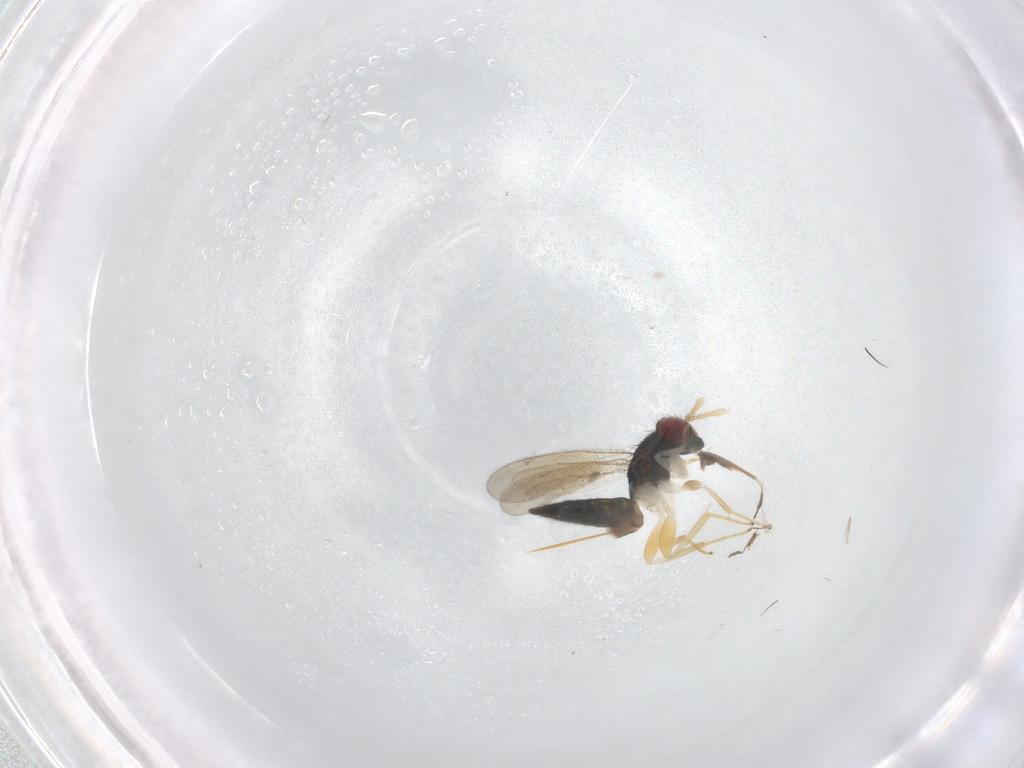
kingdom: Animalia
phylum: Arthropoda
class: Insecta
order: Hymenoptera
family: Eulophidae
